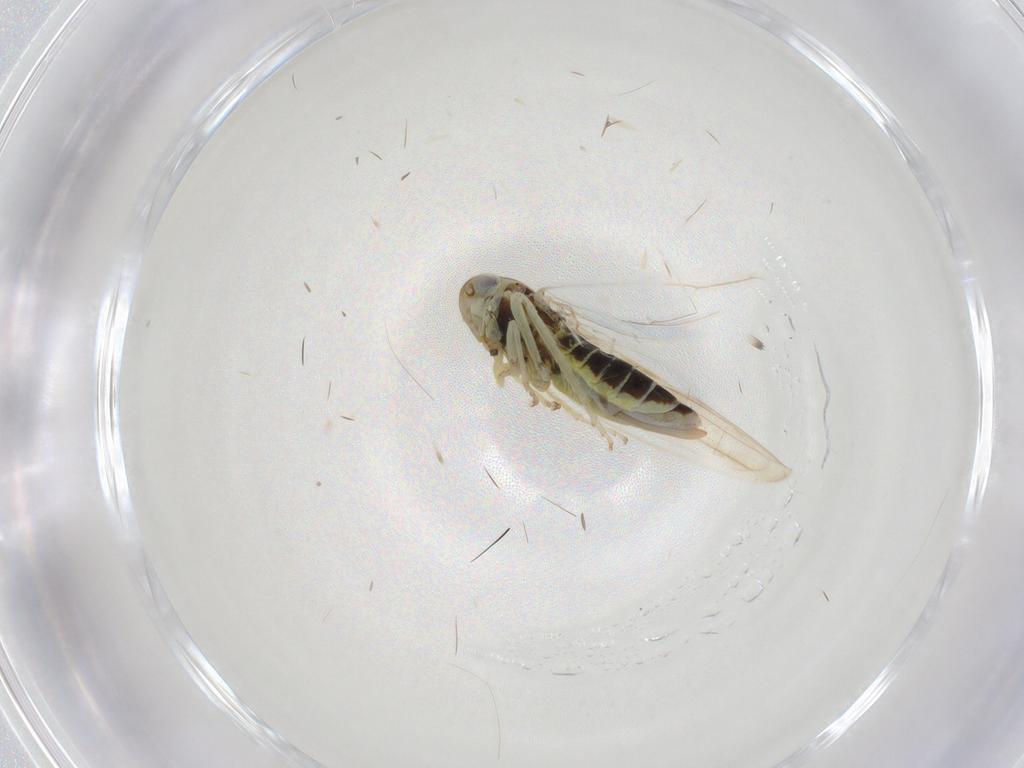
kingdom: Animalia
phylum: Arthropoda
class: Insecta
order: Hemiptera
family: Cicadellidae
